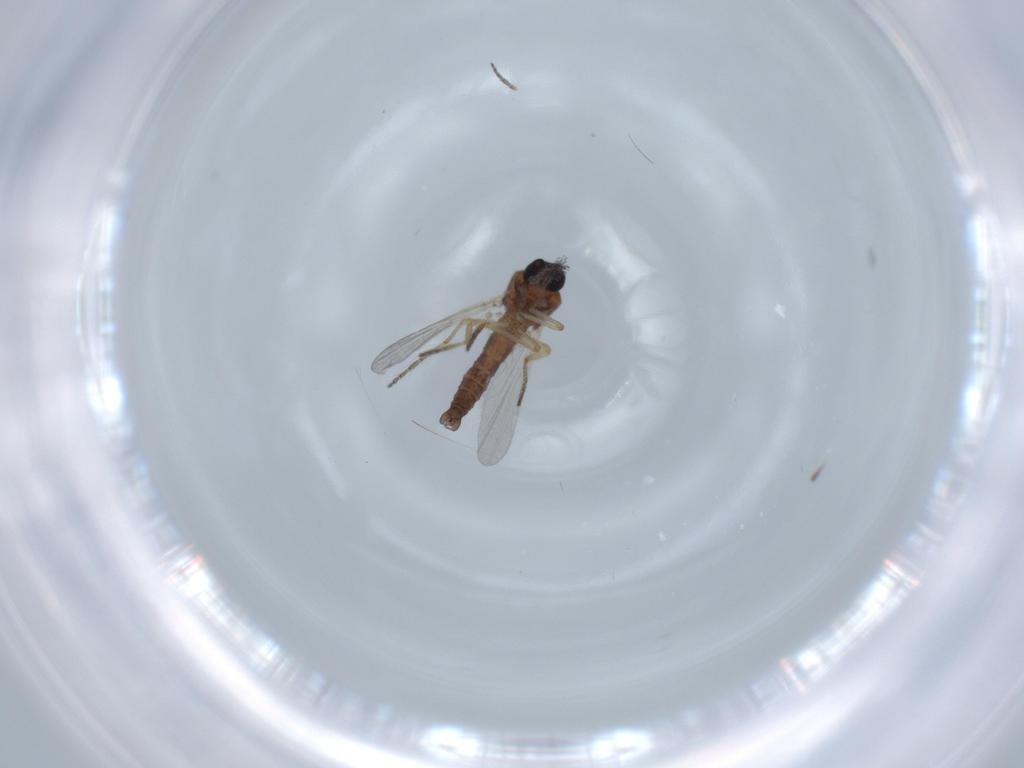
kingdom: Animalia
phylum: Arthropoda
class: Insecta
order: Diptera
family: Ceratopogonidae
